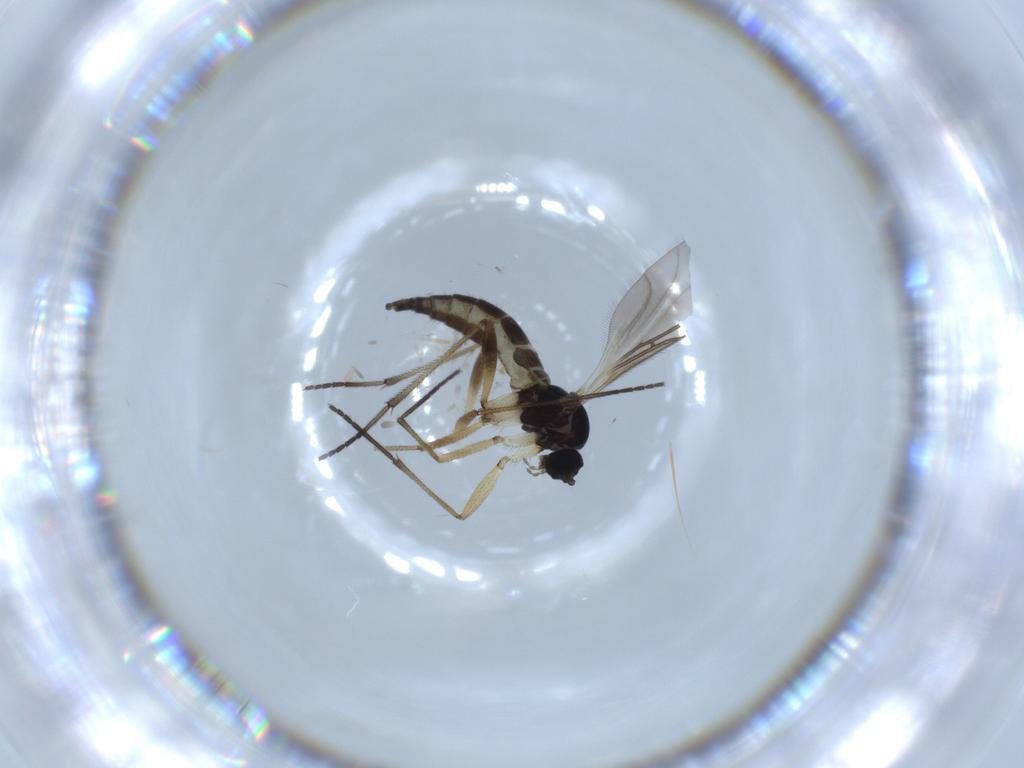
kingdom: Animalia
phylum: Arthropoda
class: Insecta
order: Diptera
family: Sciaridae
